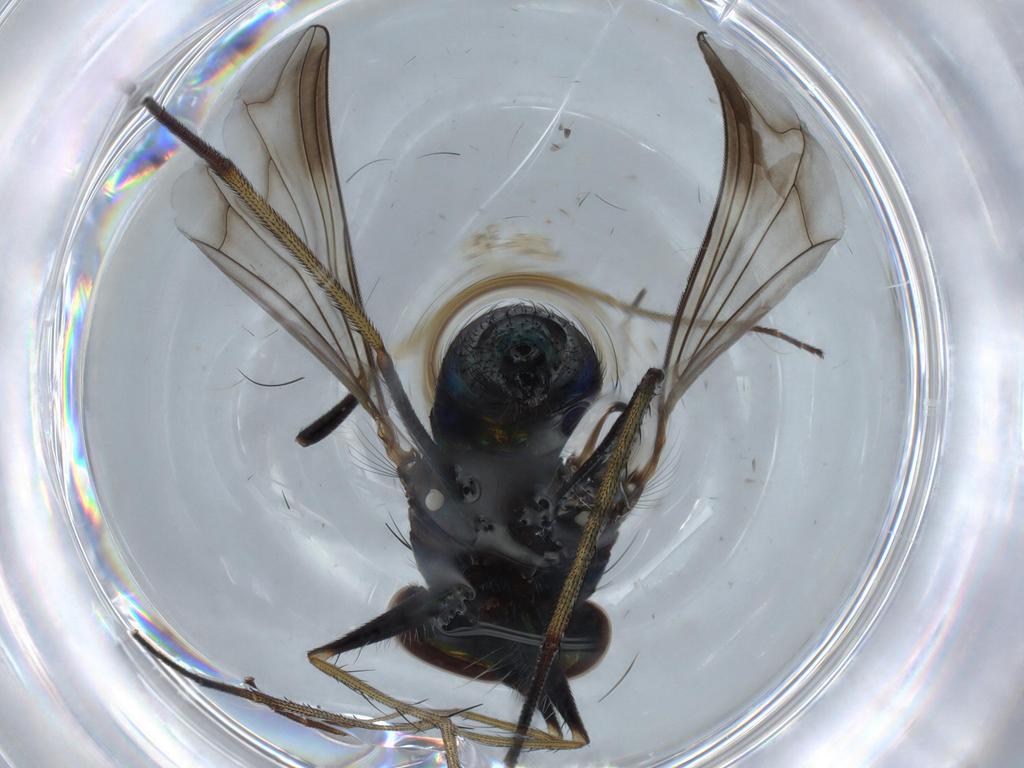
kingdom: Animalia
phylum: Arthropoda
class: Insecta
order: Diptera
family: Dolichopodidae
